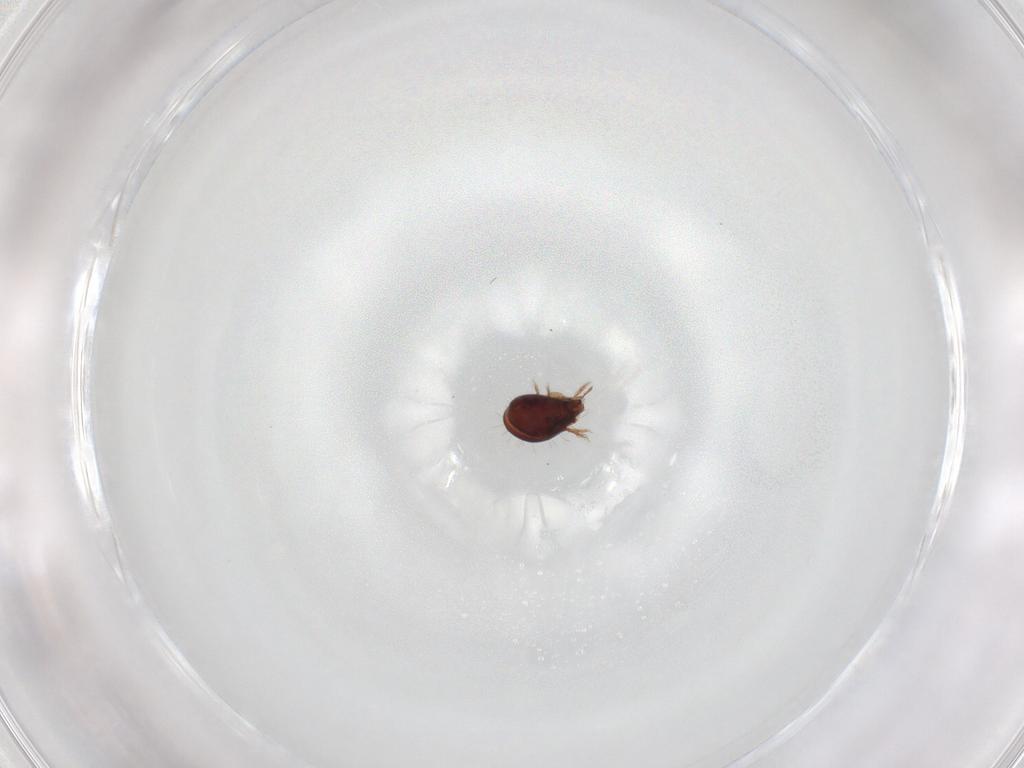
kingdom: Animalia
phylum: Arthropoda
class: Arachnida
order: Sarcoptiformes
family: Humerobatidae
